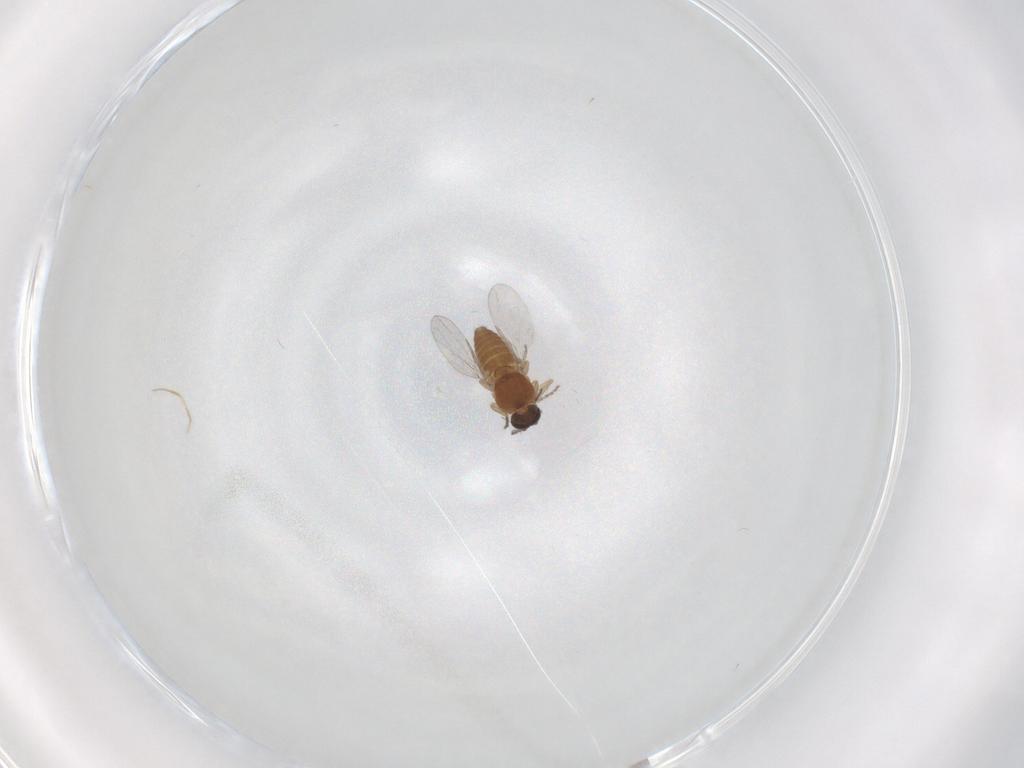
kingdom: Animalia
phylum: Arthropoda
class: Insecta
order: Diptera
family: Ceratopogonidae
